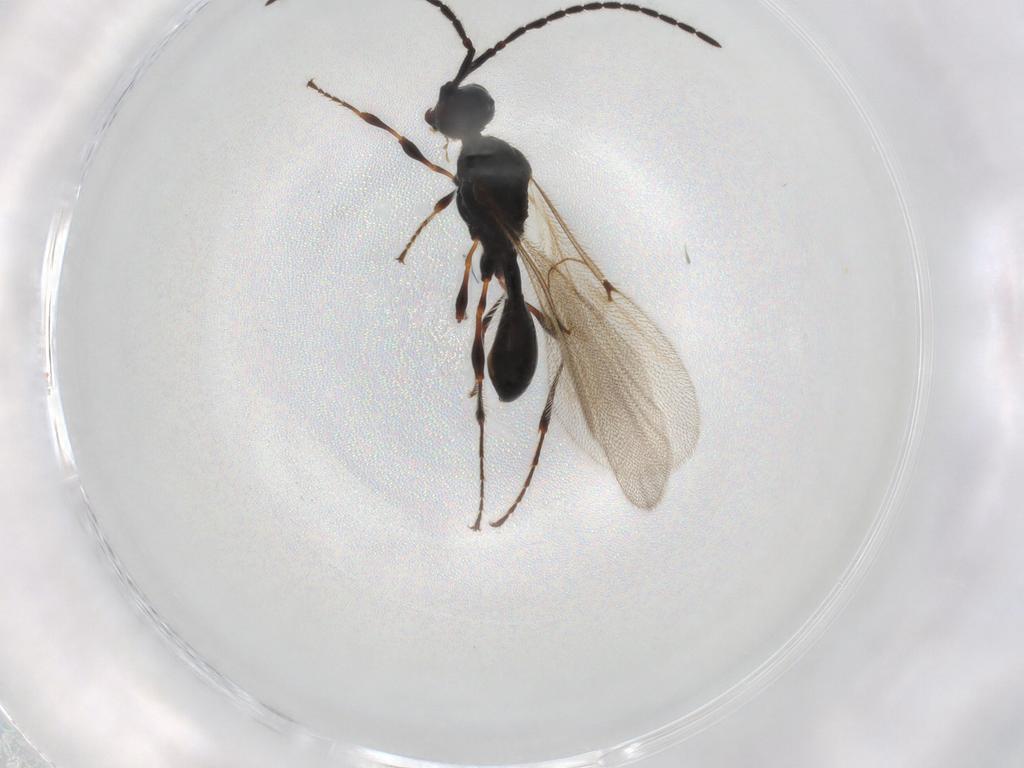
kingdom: Animalia
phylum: Arthropoda
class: Insecta
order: Hymenoptera
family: Diapriidae
